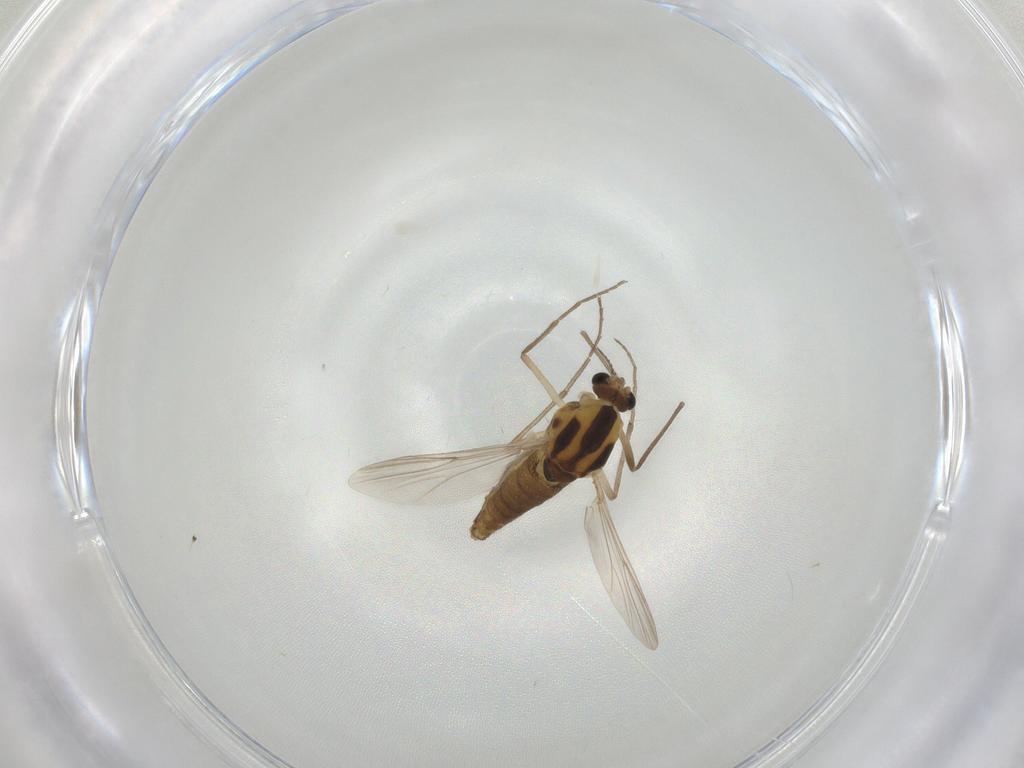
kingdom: Animalia
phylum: Arthropoda
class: Insecta
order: Diptera
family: Chironomidae
